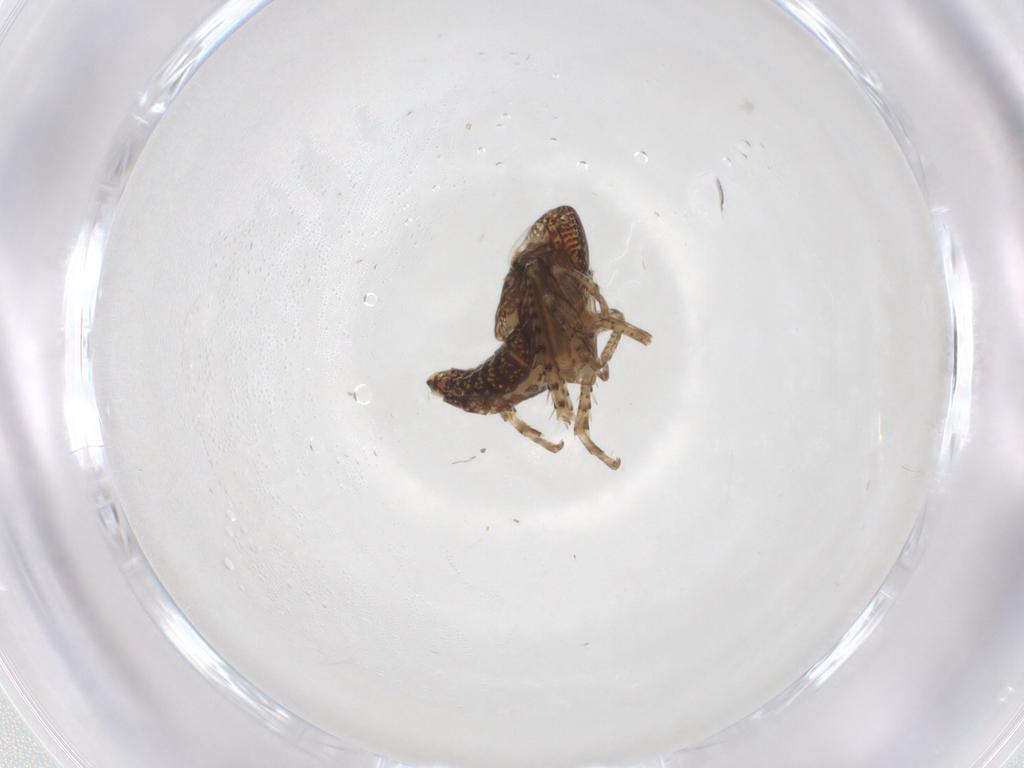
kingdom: Animalia
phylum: Arthropoda
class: Insecta
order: Hemiptera
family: Cicadellidae
